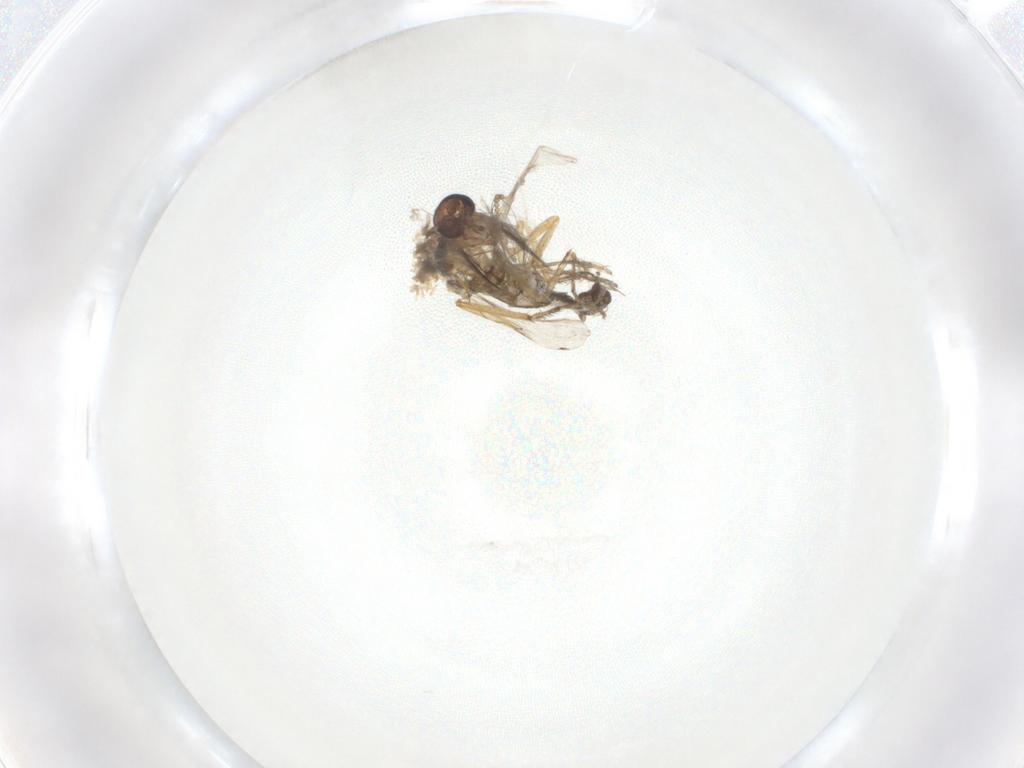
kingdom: Animalia
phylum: Arthropoda
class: Insecta
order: Diptera
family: Ceratopogonidae
